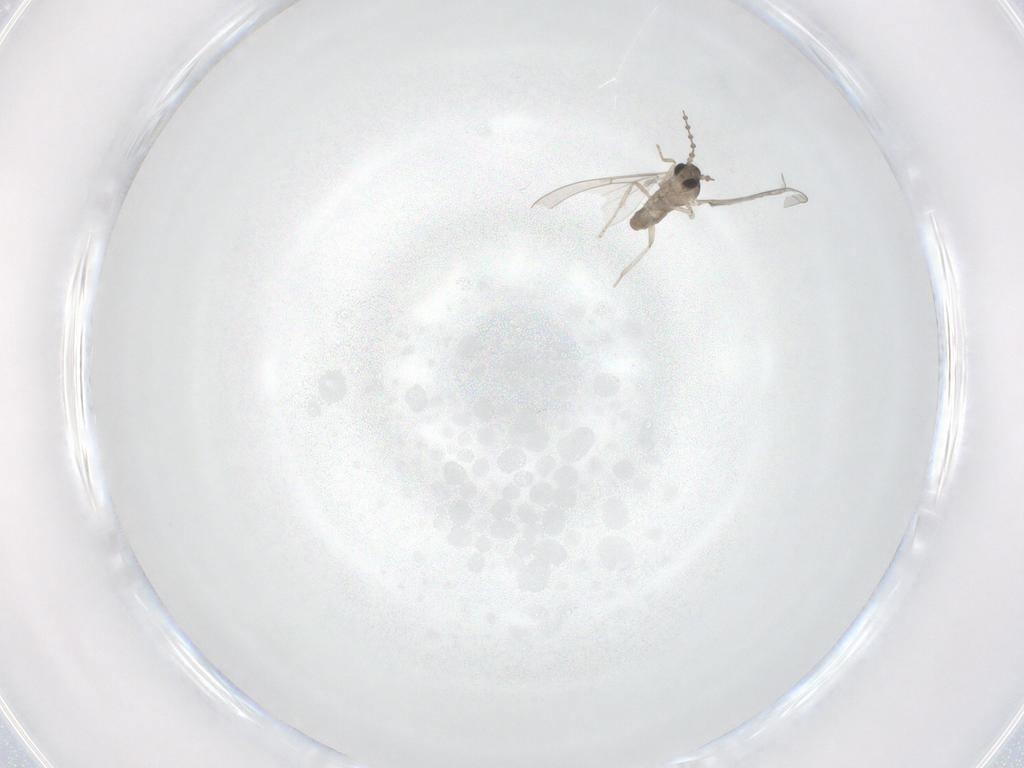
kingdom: Animalia
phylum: Arthropoda
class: Insecta
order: Diptera
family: Cecidomyiidae
